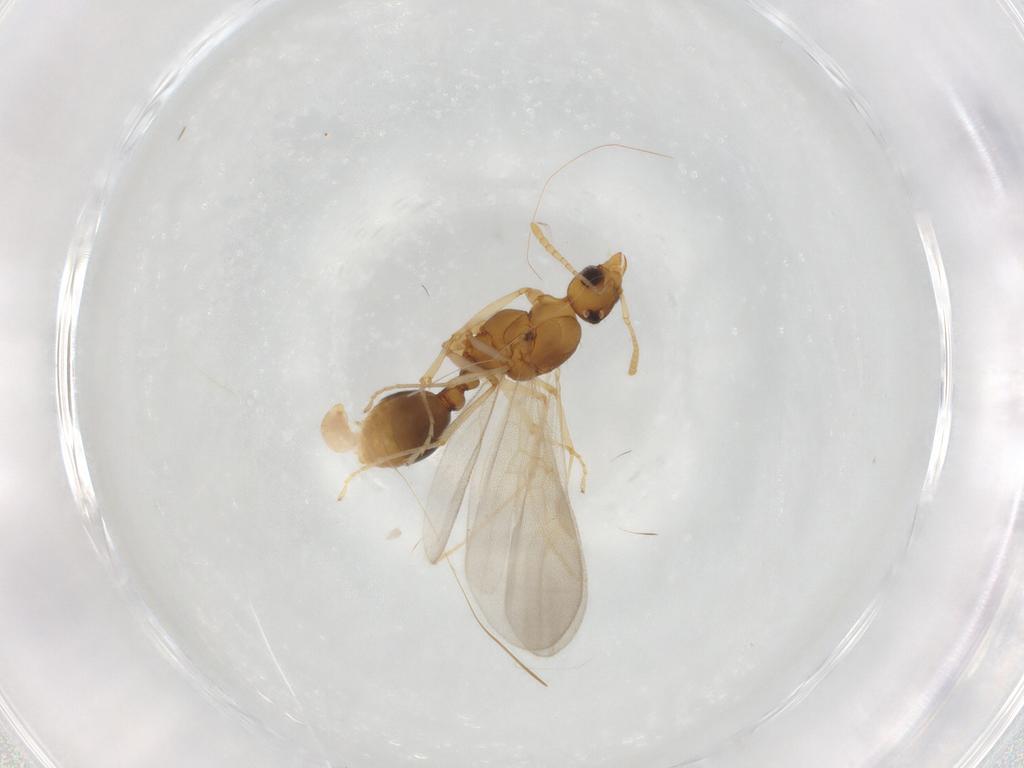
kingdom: Animalia
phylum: Arthropoda
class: Insecta
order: Hymenoptera
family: Formicidae
